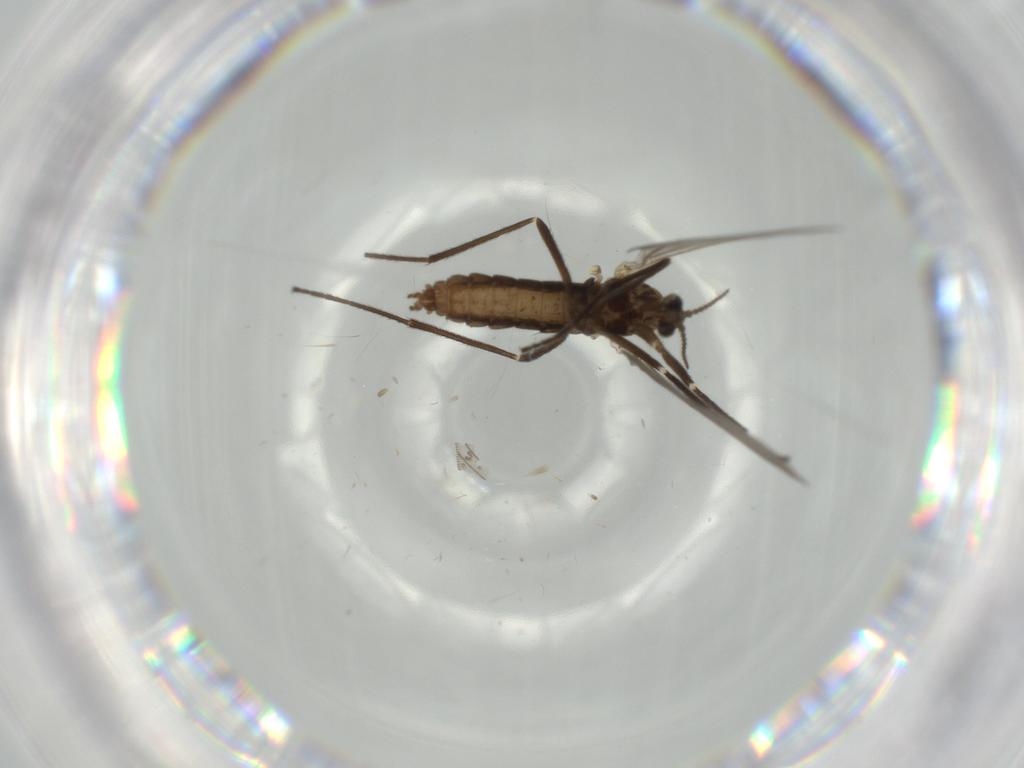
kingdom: Animalia
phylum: Arthropoda
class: Insecta
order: Diptera
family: Cecidomyiidae
